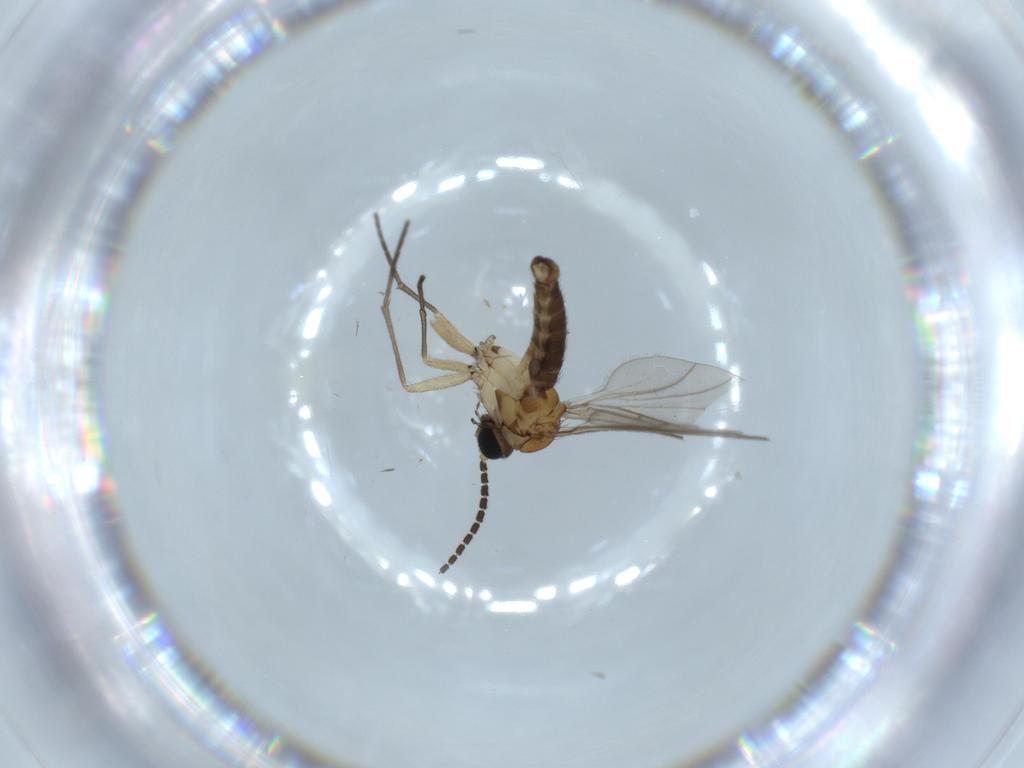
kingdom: Animalia
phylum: Arthropoda
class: Insecta
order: Diptera
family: Sciaridae
